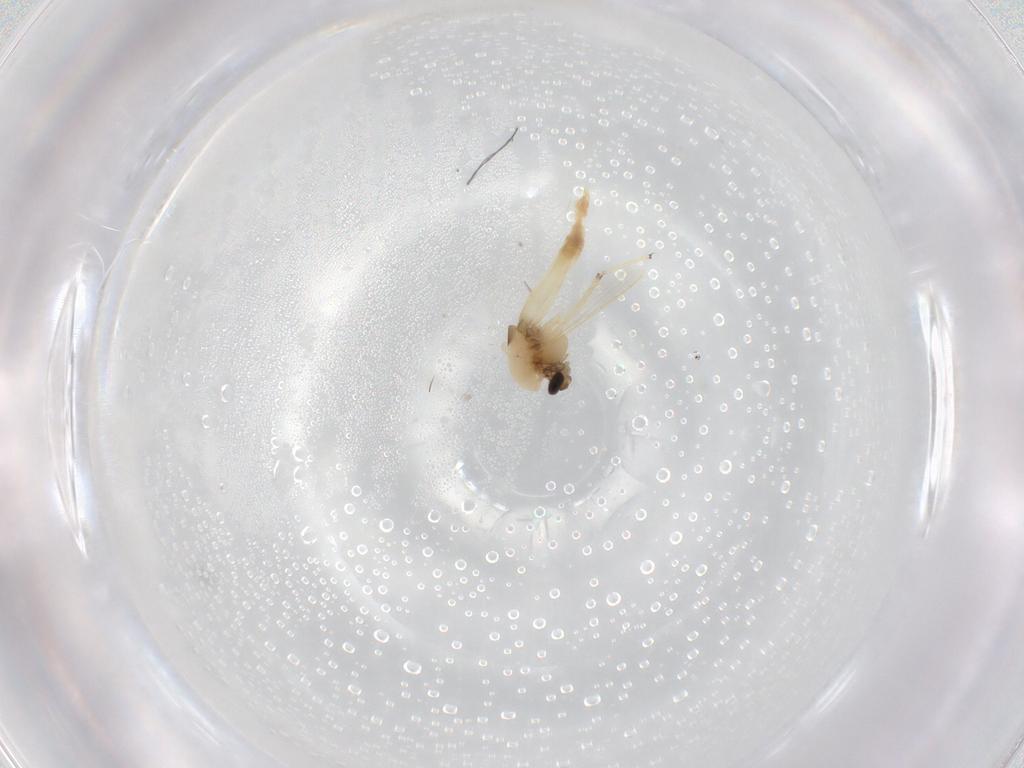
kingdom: Animalia
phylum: Arthropoda
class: Insecta
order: Diptera
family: Chironomidae
